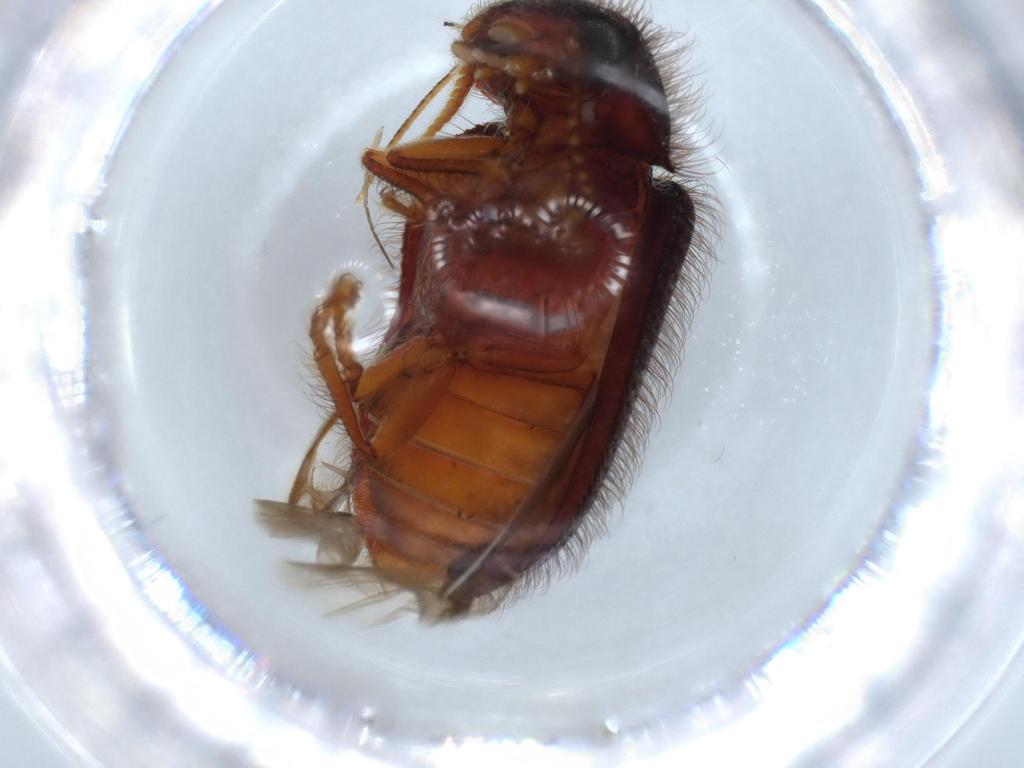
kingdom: Animalia
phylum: Arthropoda
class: Insecta
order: Coleoptera
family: Rhadalidae
